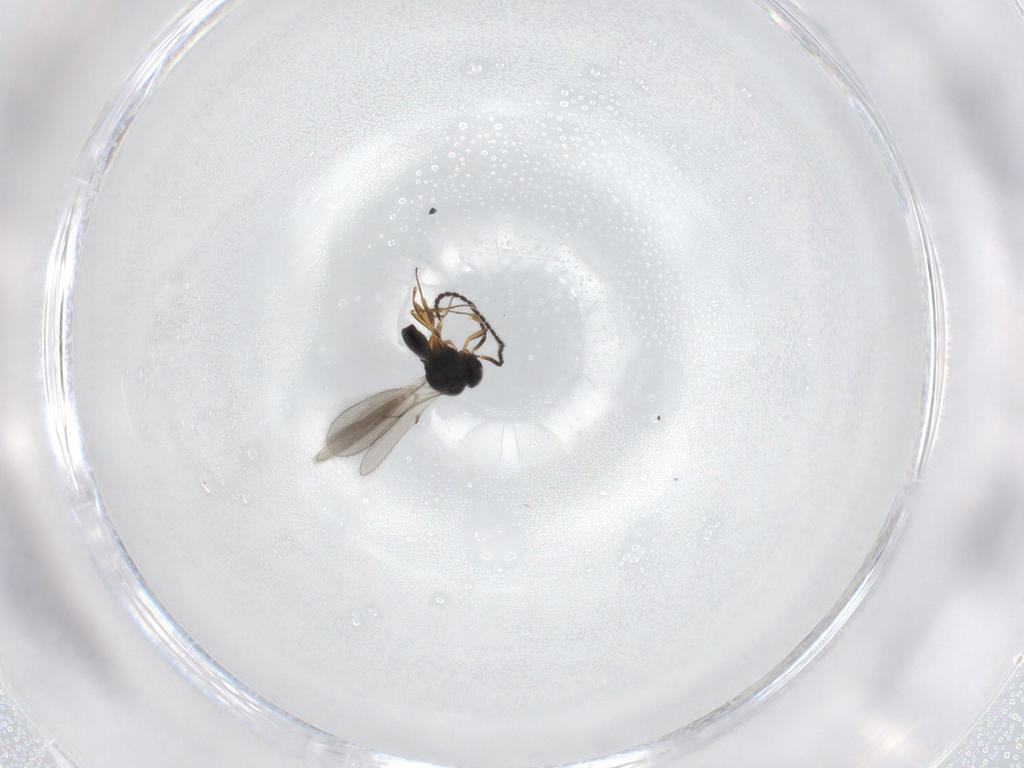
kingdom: Animalia
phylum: Arthropoda
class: Insecta
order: Hymenoptera
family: Scelionidae
